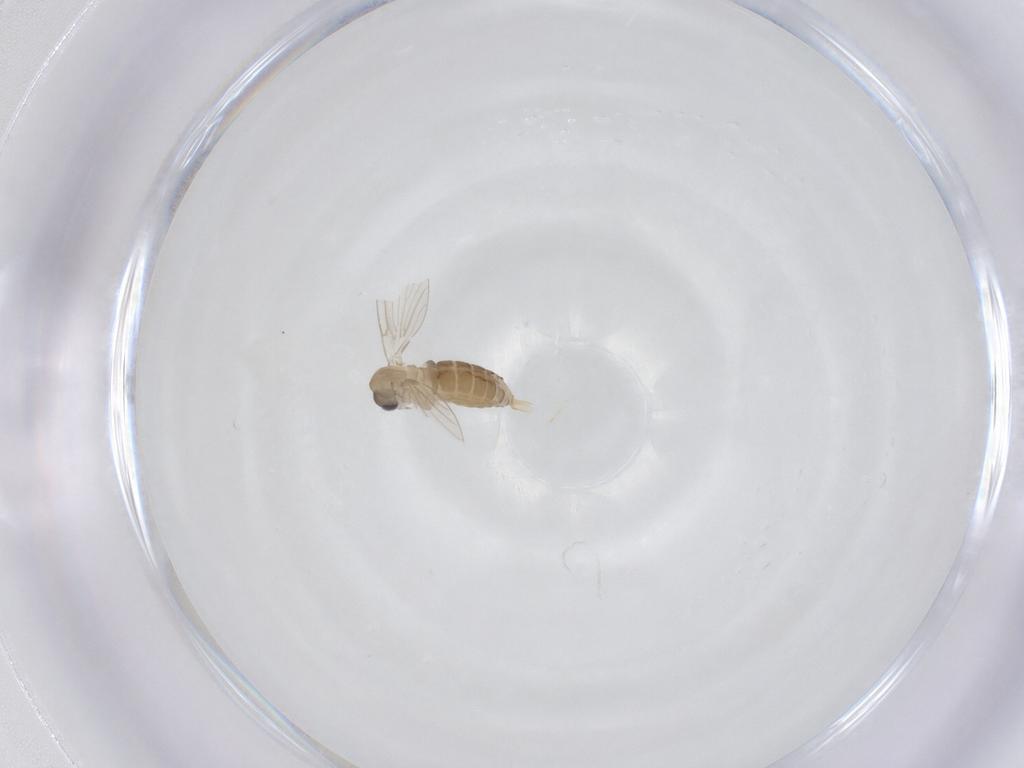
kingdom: Animalia
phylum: Arthropoda
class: Insecta
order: Diptera
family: Psychodidae
